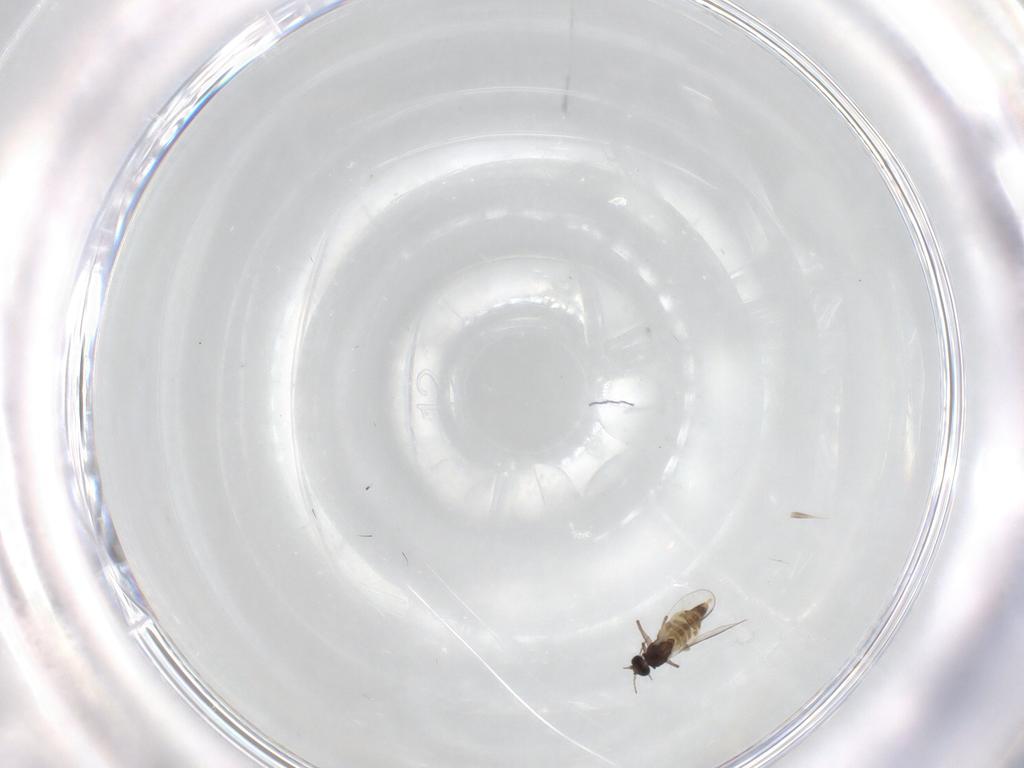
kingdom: Animalia
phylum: Arthropoda
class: Insecta
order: Diptera
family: Chironomidae
